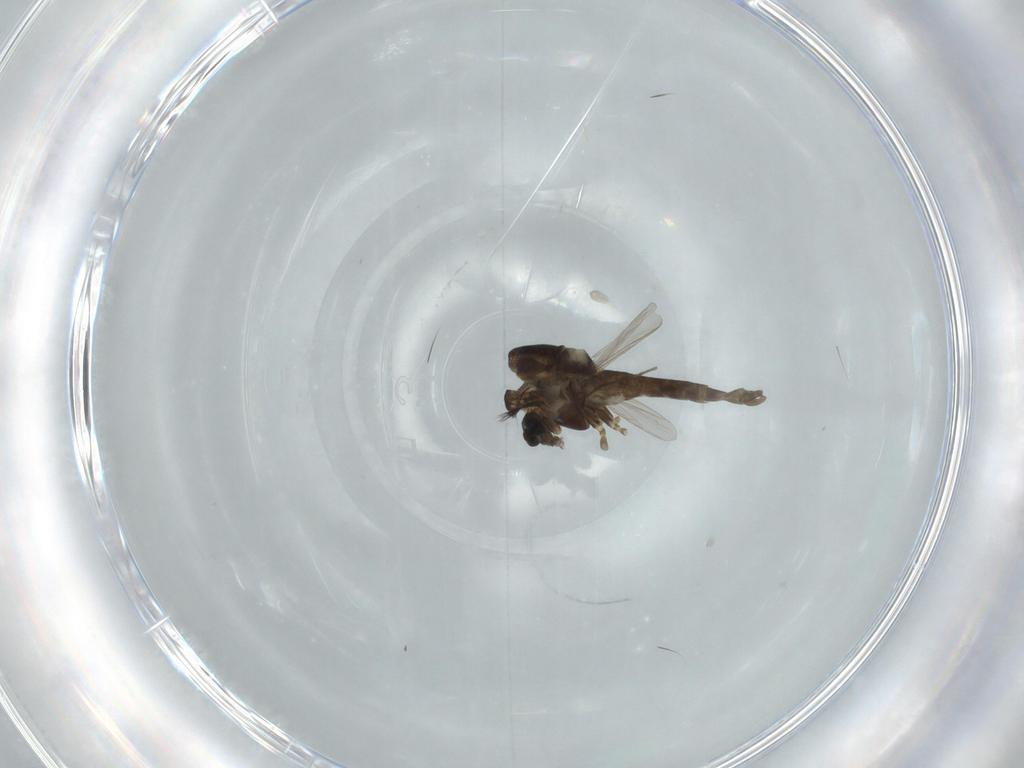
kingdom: Animalia
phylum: Arthropoda
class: Insecta
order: Diptera
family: Chironomidae
